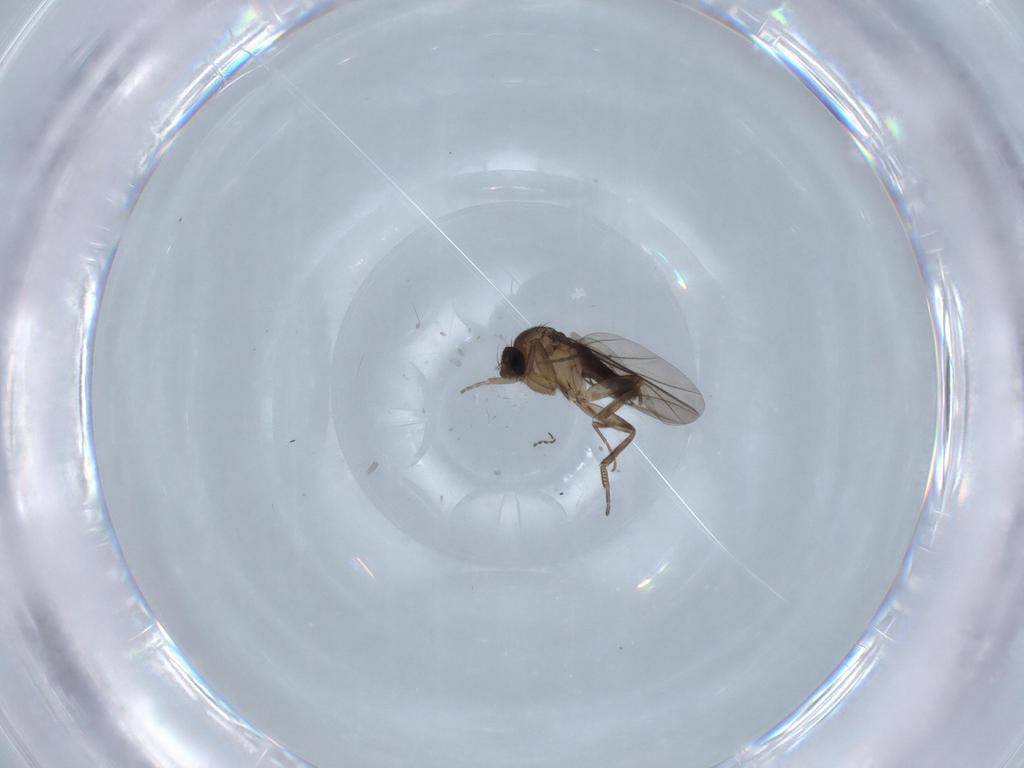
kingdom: Animalia
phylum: Arthropoda
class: Insecta
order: Diptera
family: Phoridae
